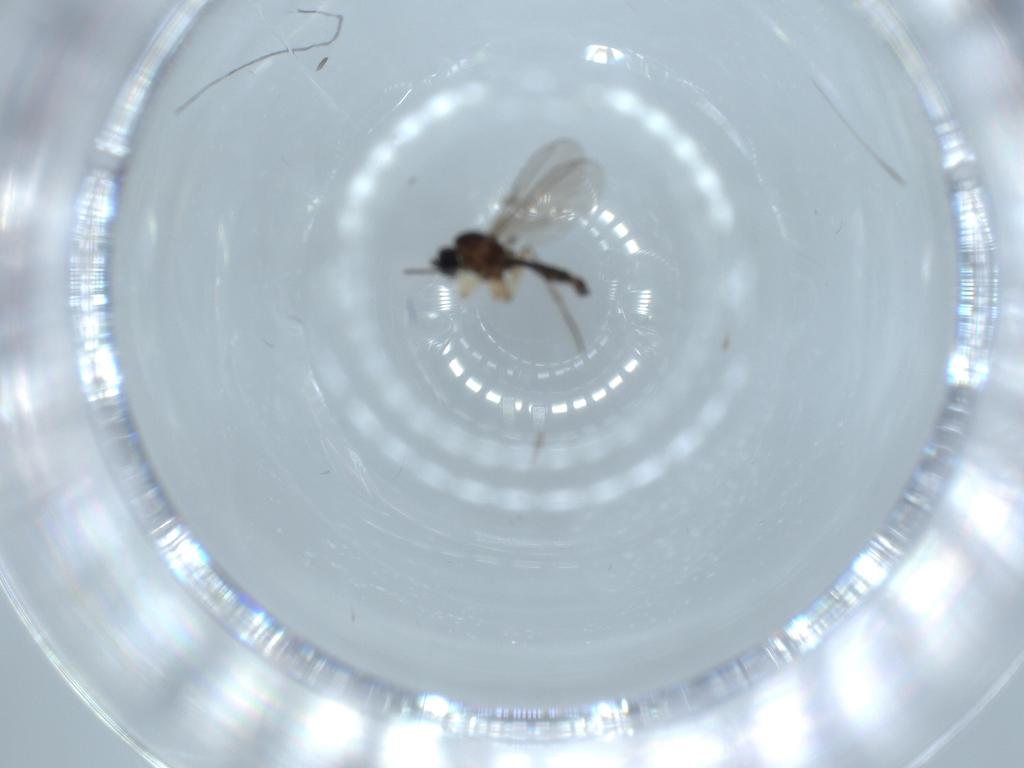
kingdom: Animalia
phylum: Arthropoda
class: Insecta
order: Diptera
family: Sciaridae
